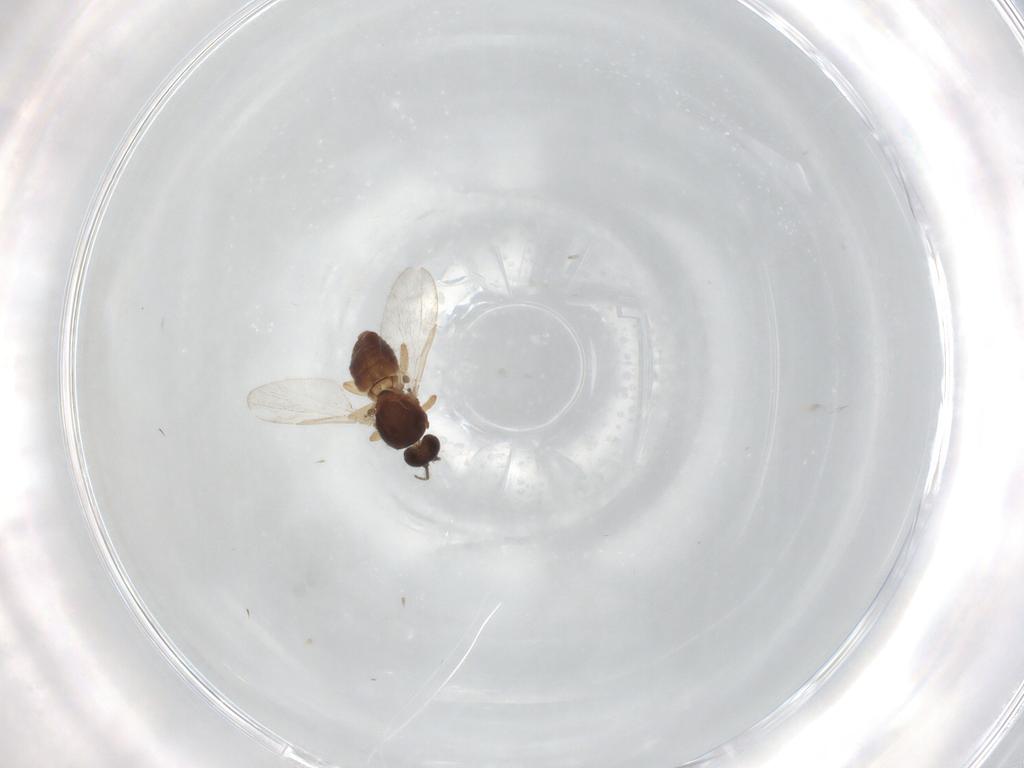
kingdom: Animalia
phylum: Arthropoda
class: Insecta
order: Diptera
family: Ceratopogonidae
